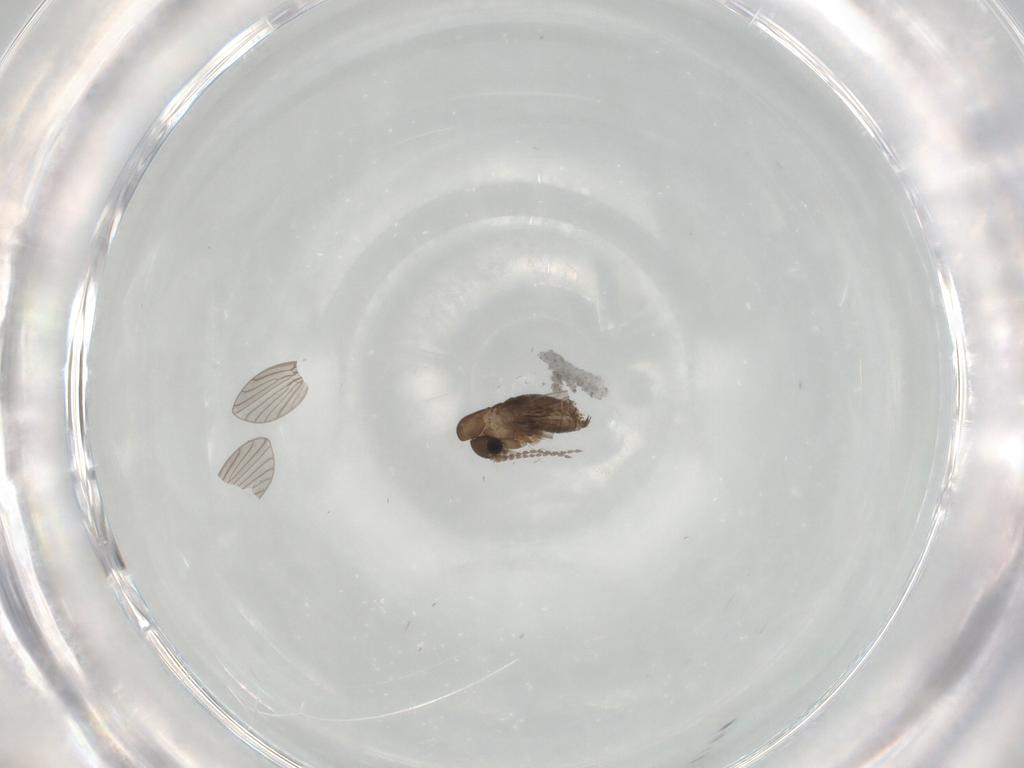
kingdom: Animalia
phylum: Arthropoda
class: Insecta
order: Diptera
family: Chironomidae
